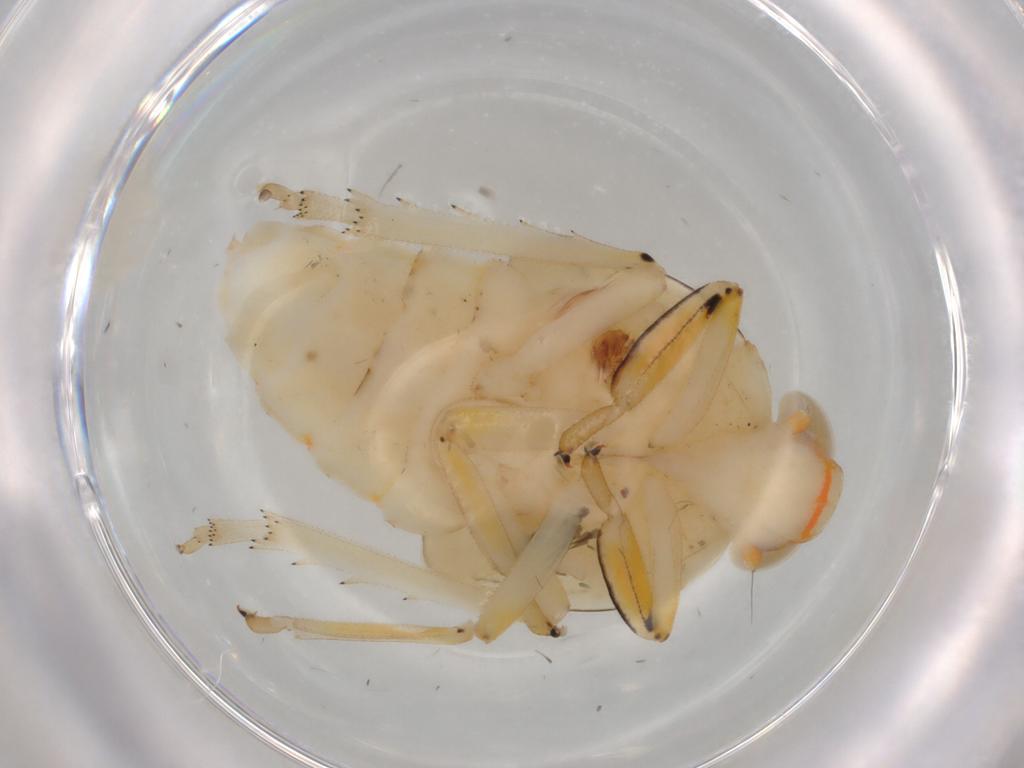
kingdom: Animalia
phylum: Arthropoda
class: Insecta
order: Hemiptera
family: Issidae
